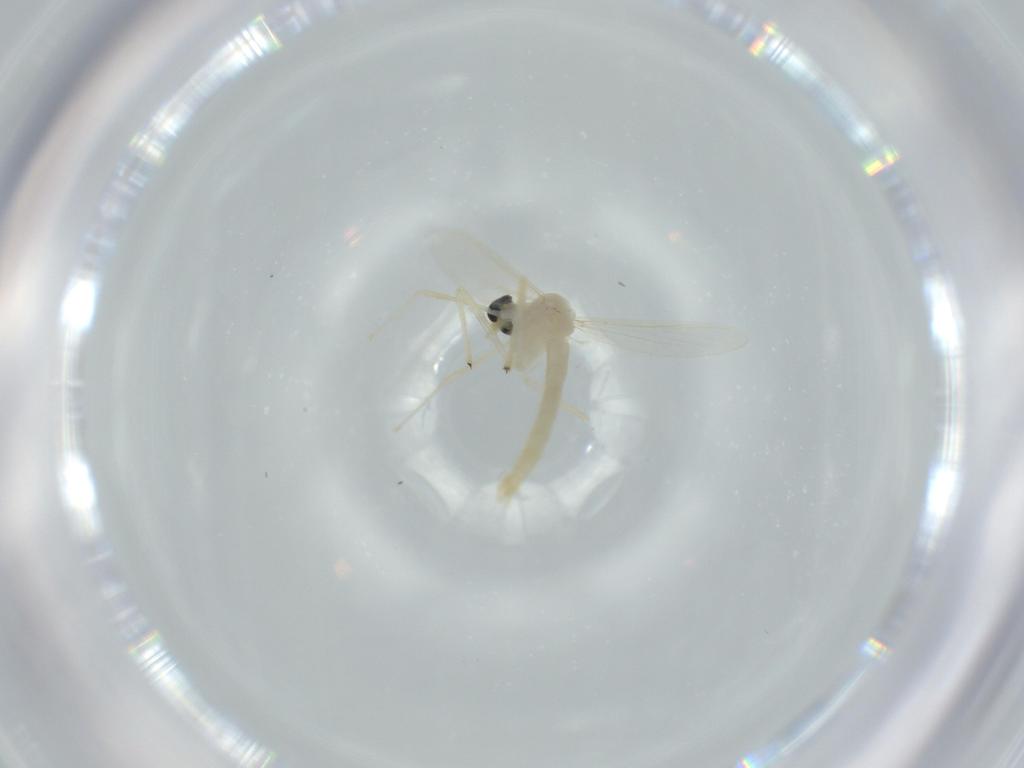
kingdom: Animalia
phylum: Arthropoda
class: Insecta
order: Diptera
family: Chironomidae
